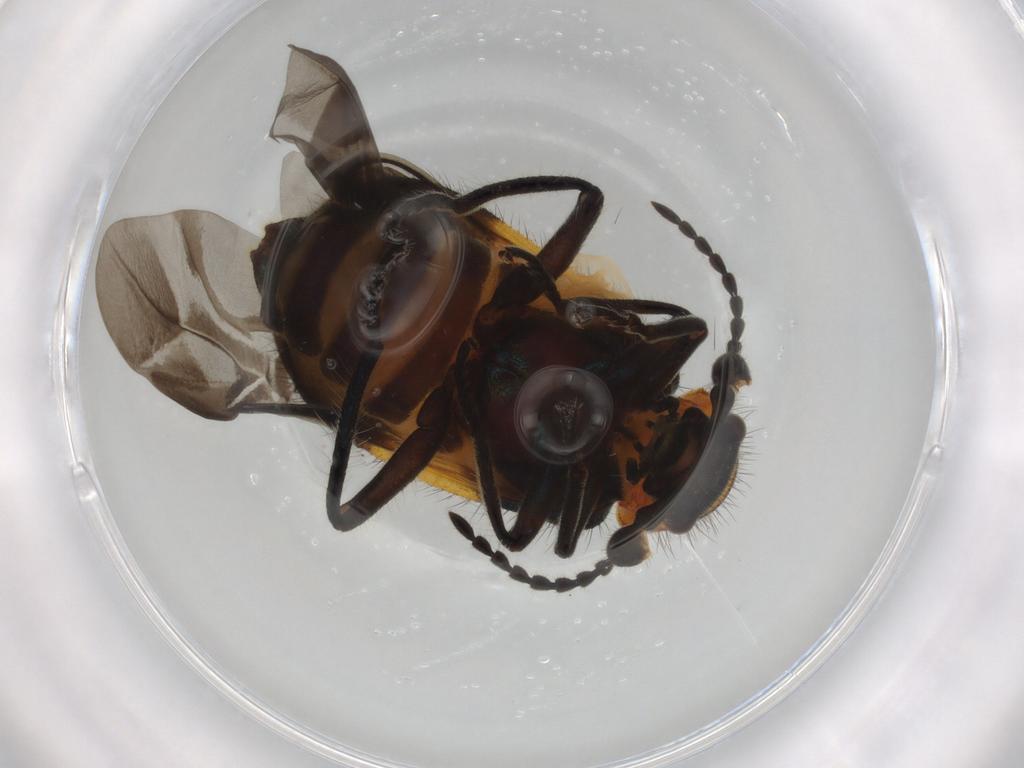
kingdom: Animalia
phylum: Arthropoda
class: Insecta
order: Coleoptera
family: Melyridae
